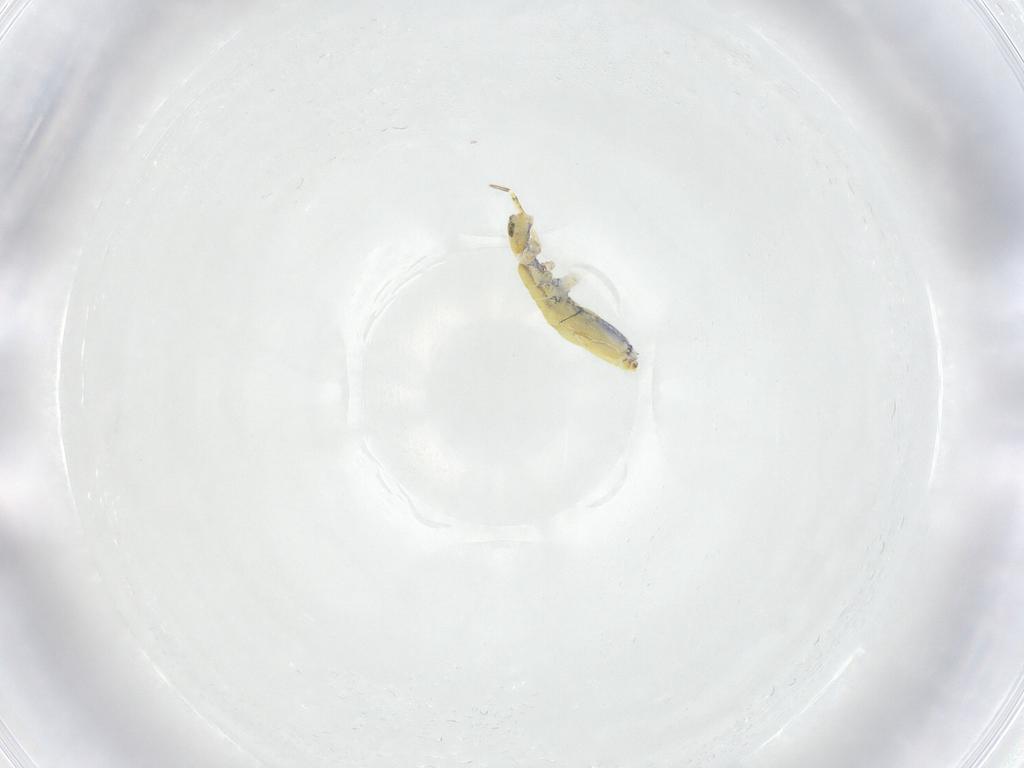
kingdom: Animalia
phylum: Arthropoda
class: Collembola
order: Entomobryomorpha
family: Paronellidae
